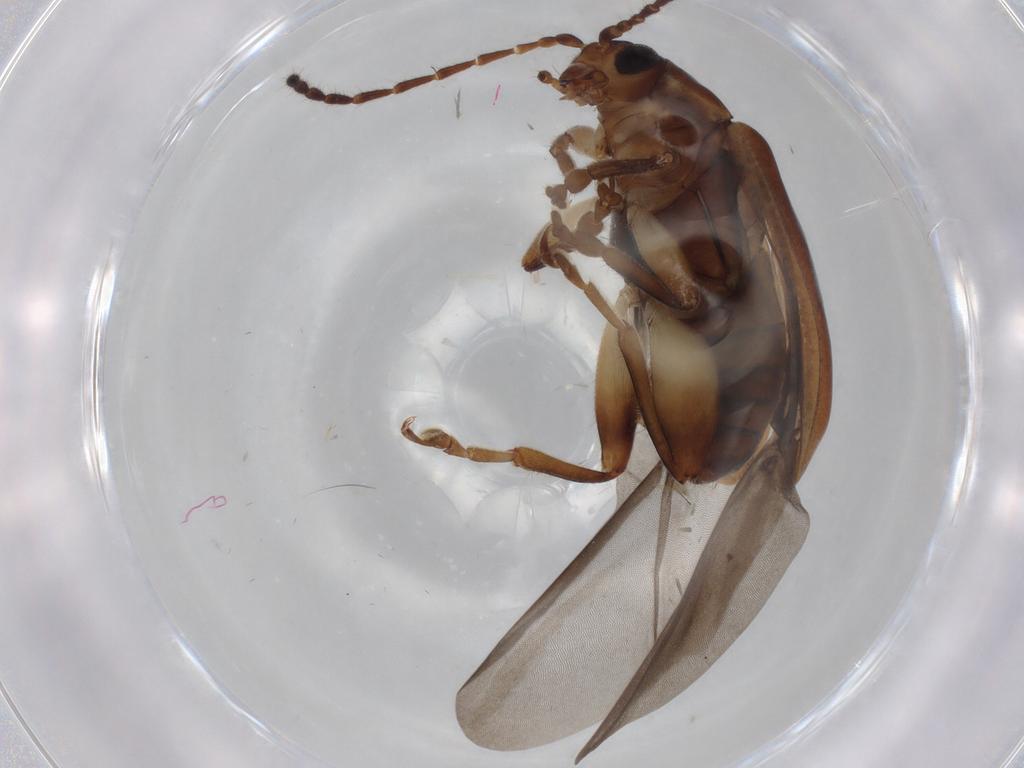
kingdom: Animalia
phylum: Arthropoda
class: Insecta
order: Coleoptera
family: Chrysomelidae
